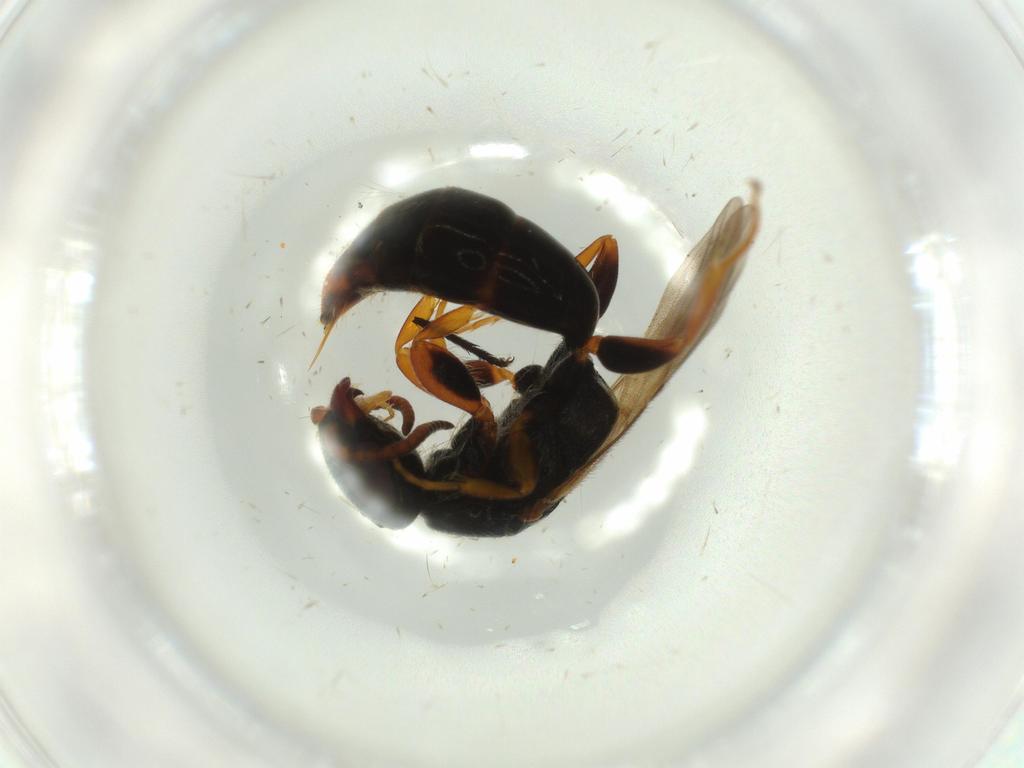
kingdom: Animalia
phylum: Arthropoda
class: Insecta
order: Hymenoptera
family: Bethylidae
